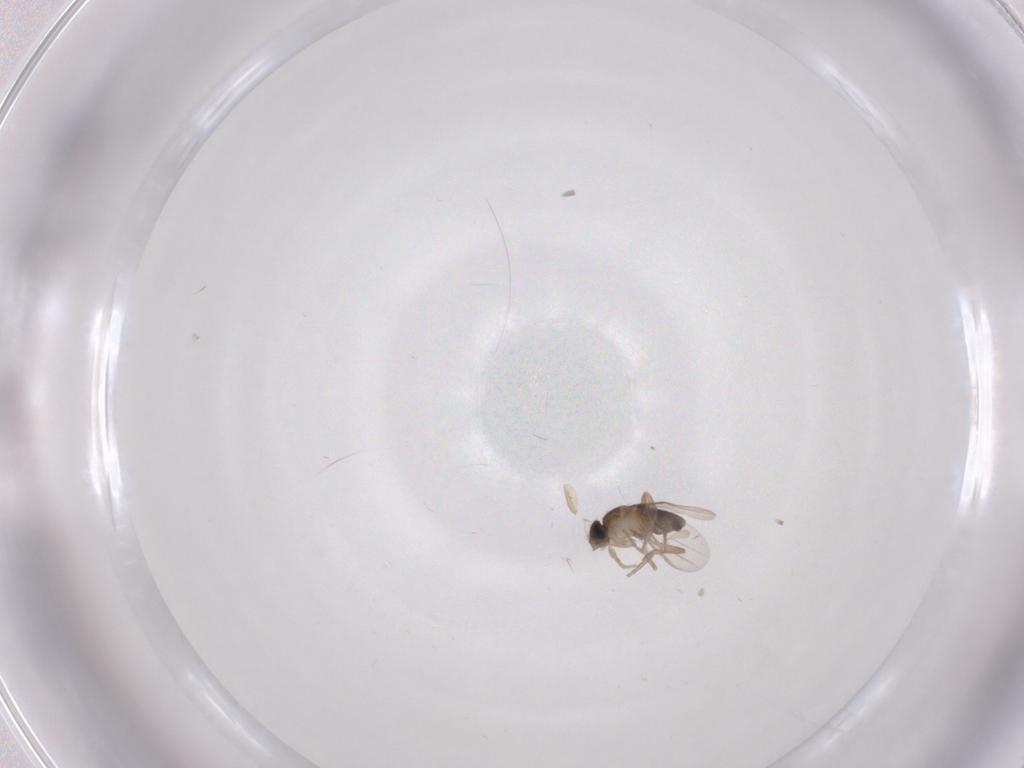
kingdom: Animalia
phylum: Arthropoda
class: Insecta
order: Diptera
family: Phoridae
